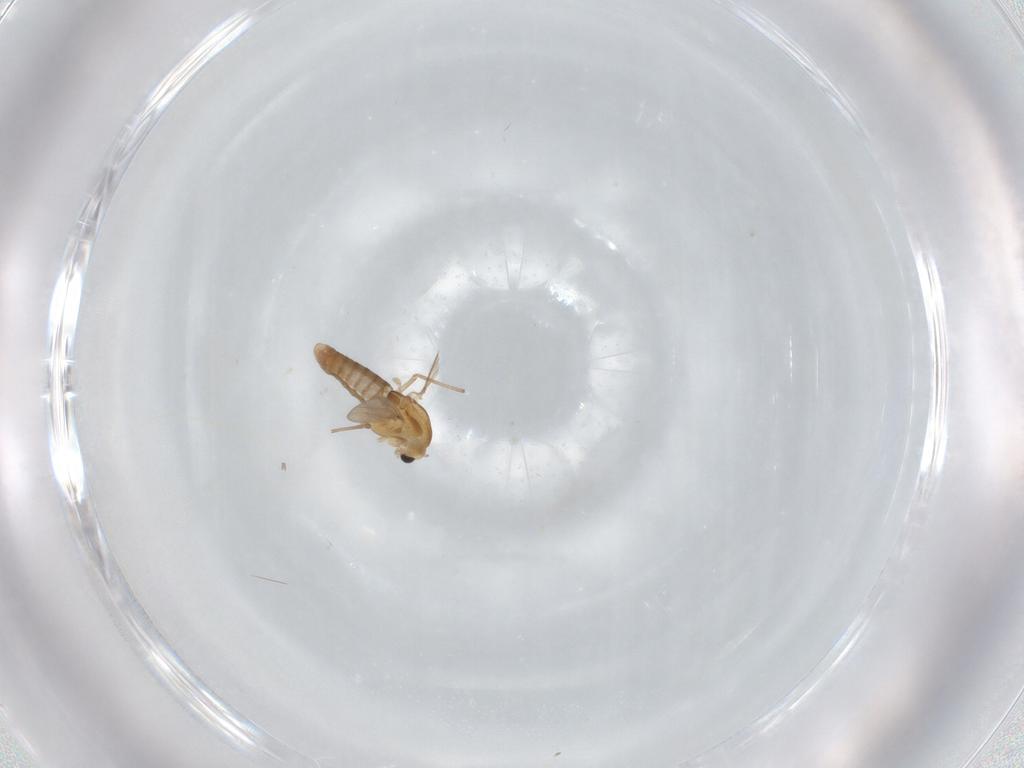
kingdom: Animalia
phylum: Arthropoda
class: Insecta
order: Diptera
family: Chironomidae
